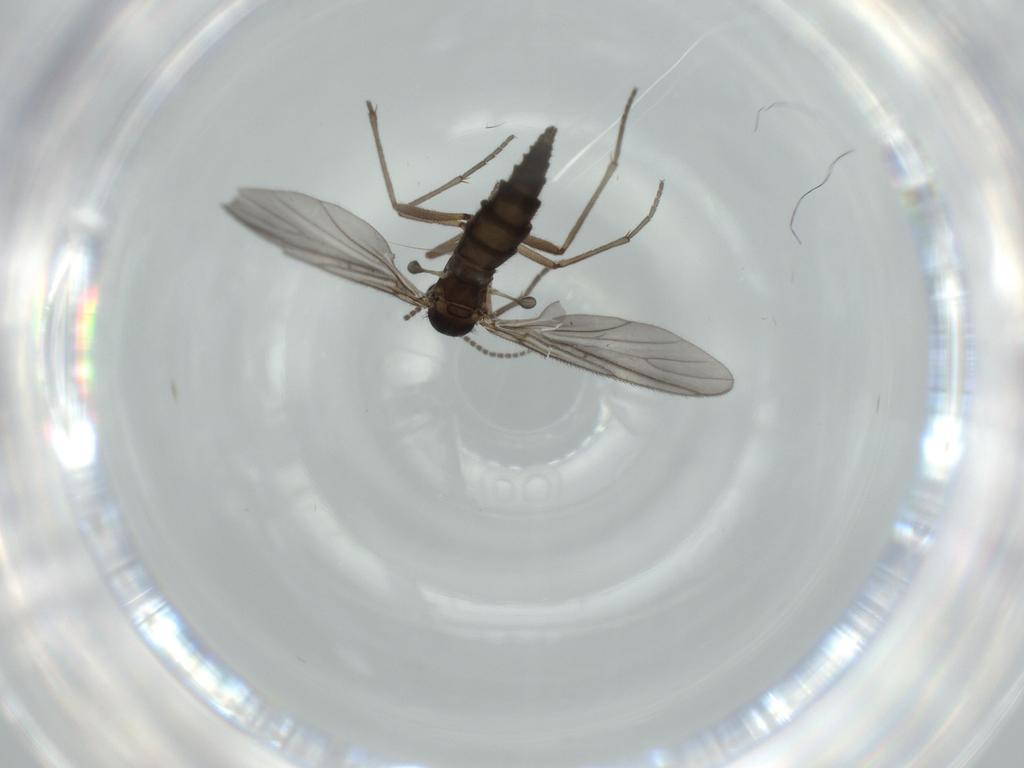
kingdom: Animalia
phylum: Arthropoda
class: Insecta
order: Diptera
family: Sciaridae
